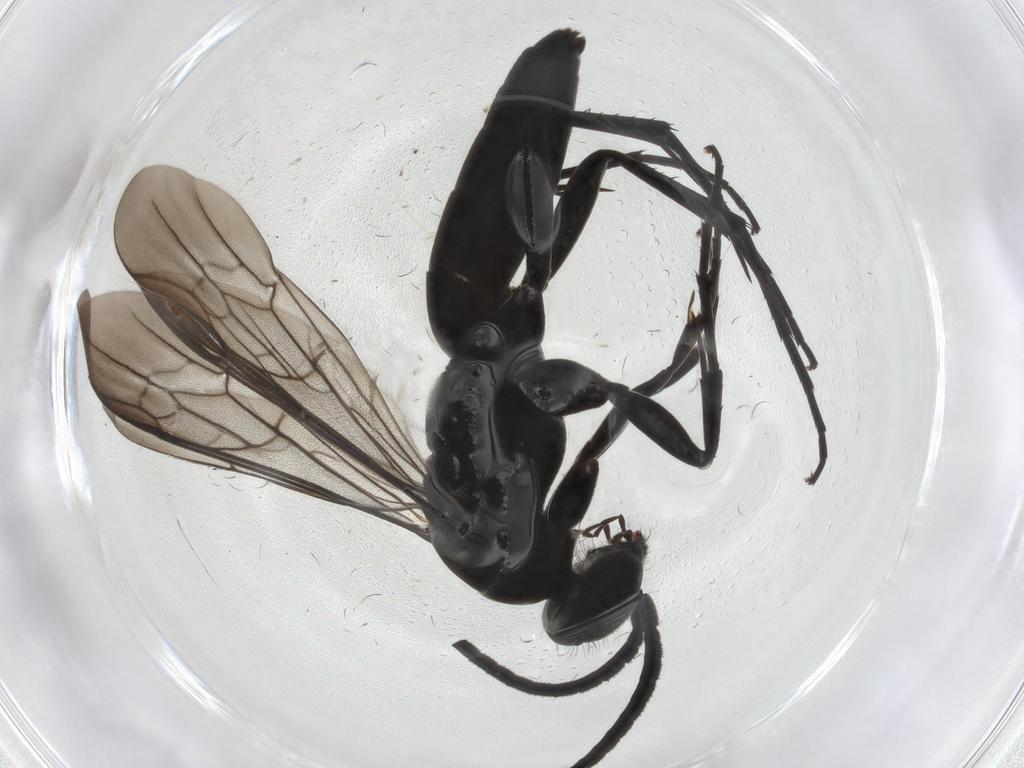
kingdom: Animalia
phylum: Arthropoda
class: Insecta
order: Hymenoptera
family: Pompilidae
